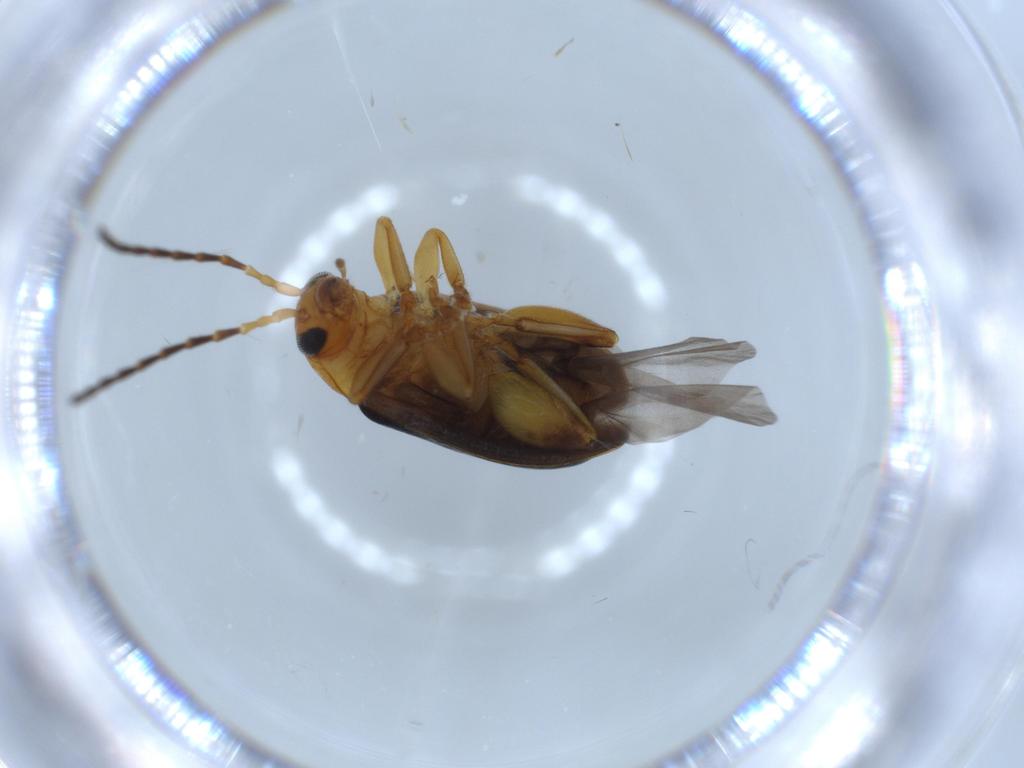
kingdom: Animalia
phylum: Arthropoda
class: Insecta
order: Coleoptera
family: Chrysomelidae
